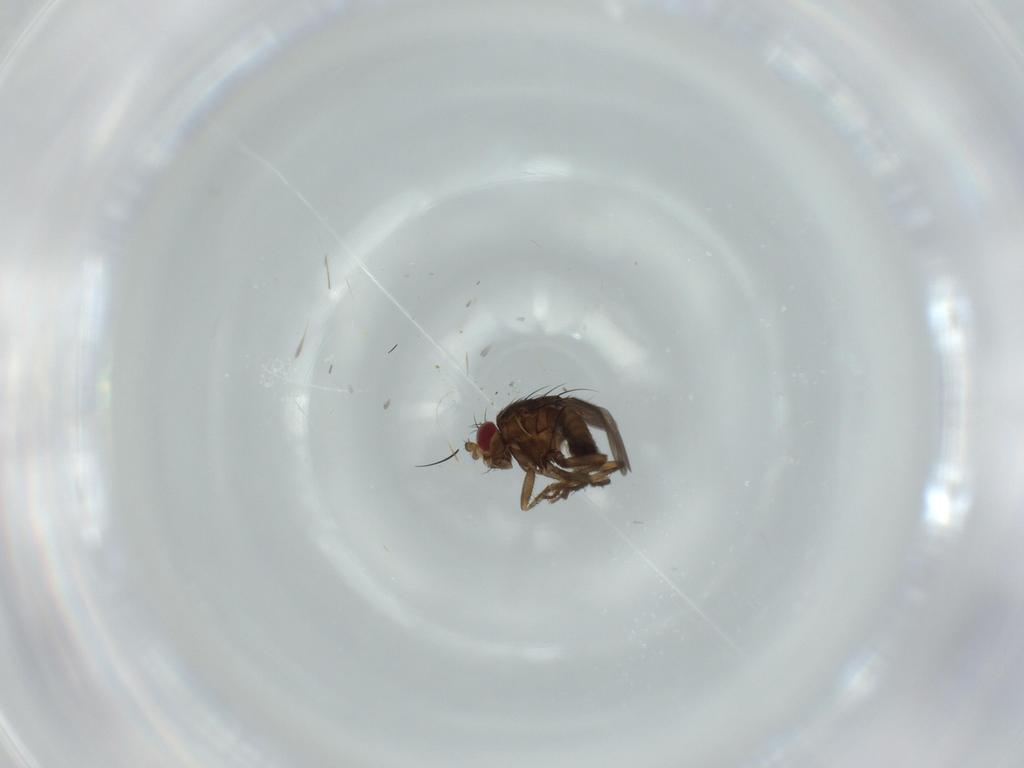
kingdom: Animalia
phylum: Arthropoda
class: Insecta
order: Diptera
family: Sphaeroceridae
